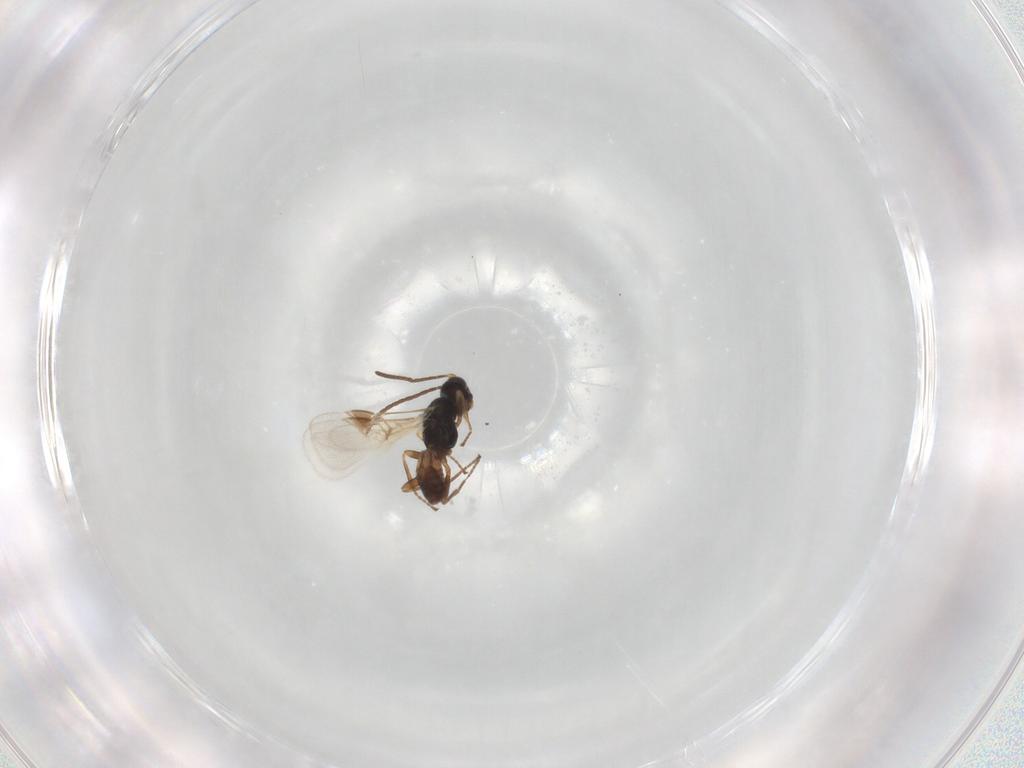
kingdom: Animalia
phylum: Arthropoda
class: Insecta
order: Hymenoptera
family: Braconidae
